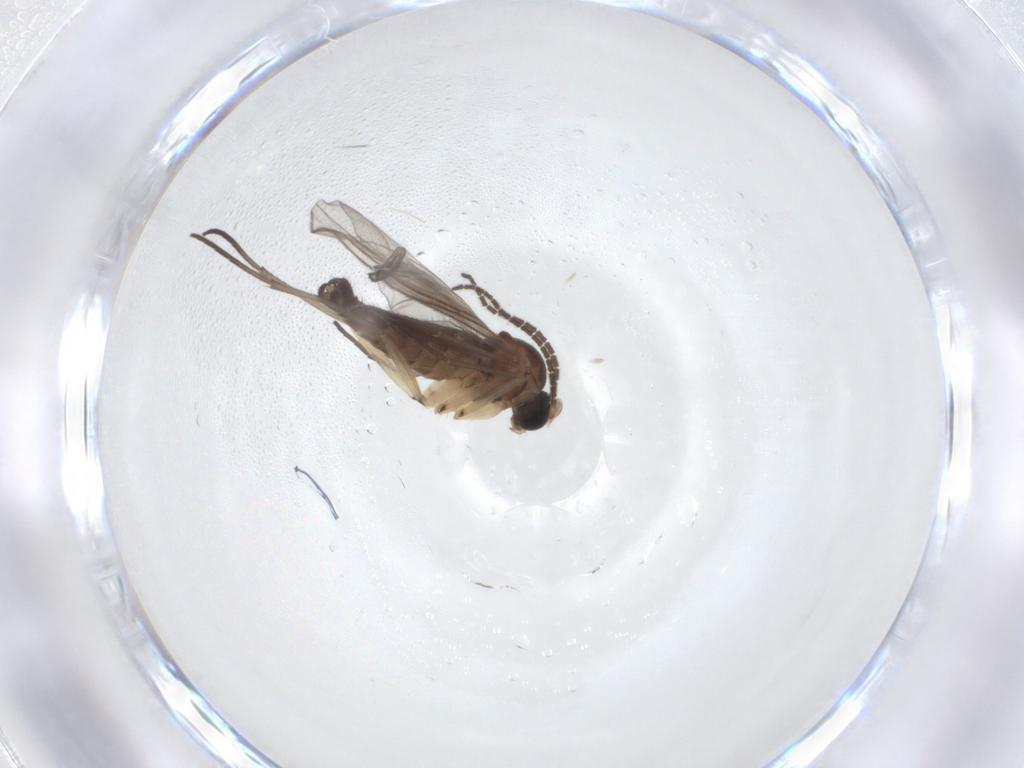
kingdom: Animalia
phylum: Arthropoda
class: Insecta
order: Diptera
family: Sciaridae
